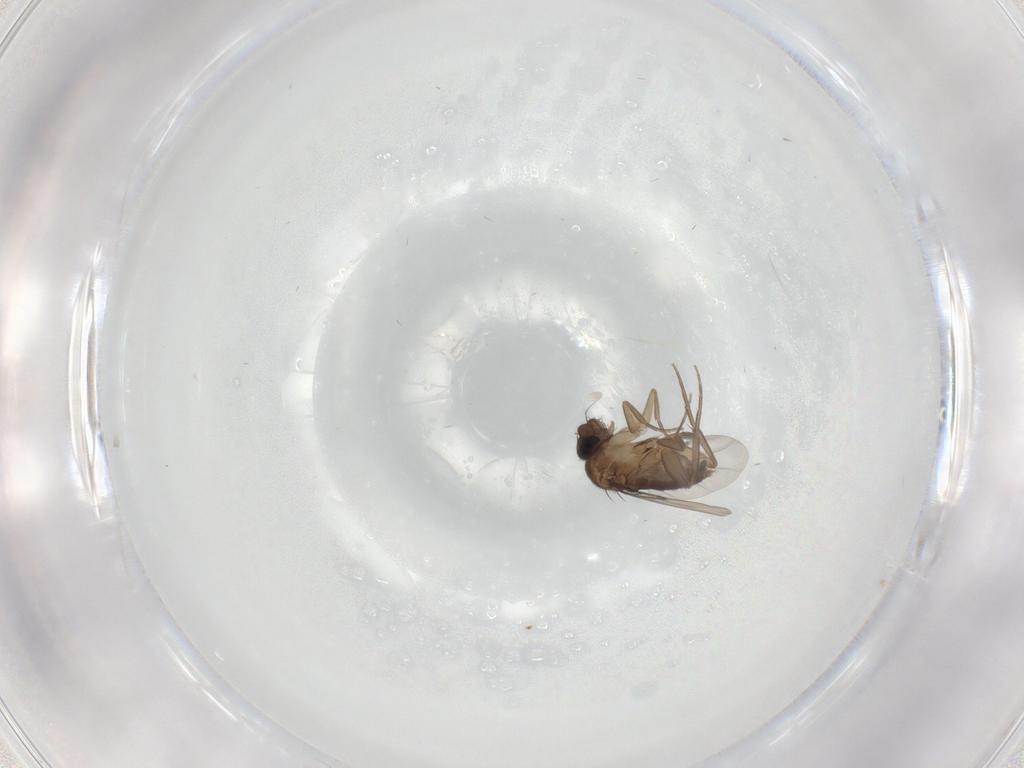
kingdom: Animalia
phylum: Arthropoda
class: Insecta
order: Diptera
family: Phoridae
